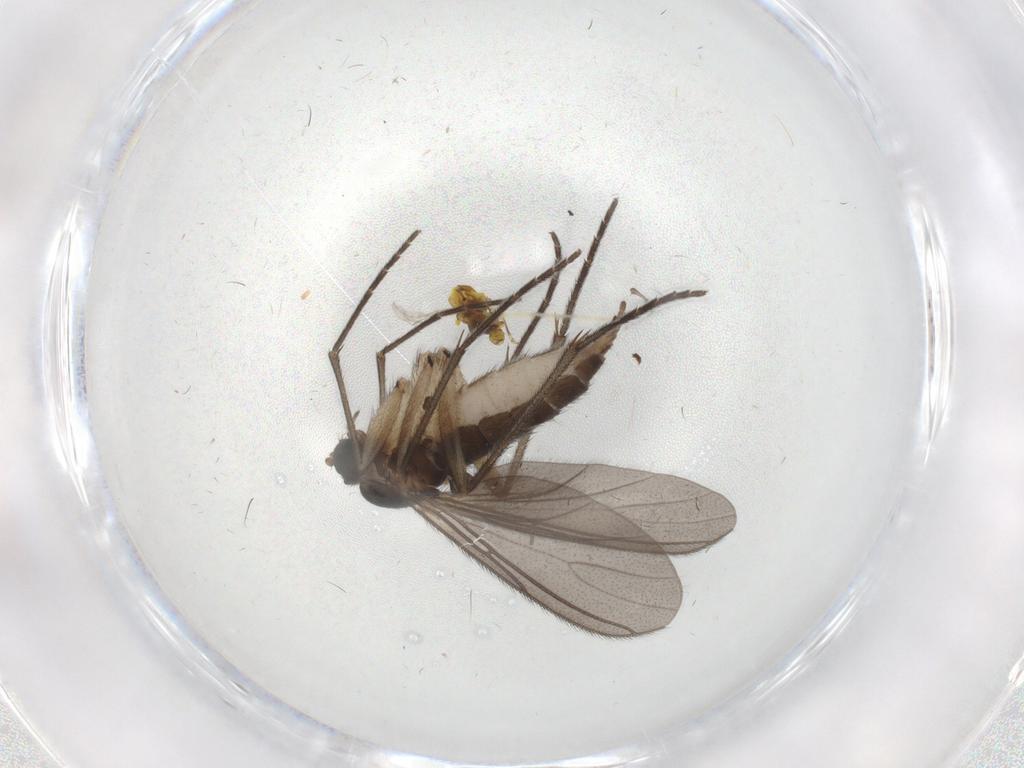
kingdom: Animalia
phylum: Arthropoda
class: Insecta
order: Diptera
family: Sciaridae
